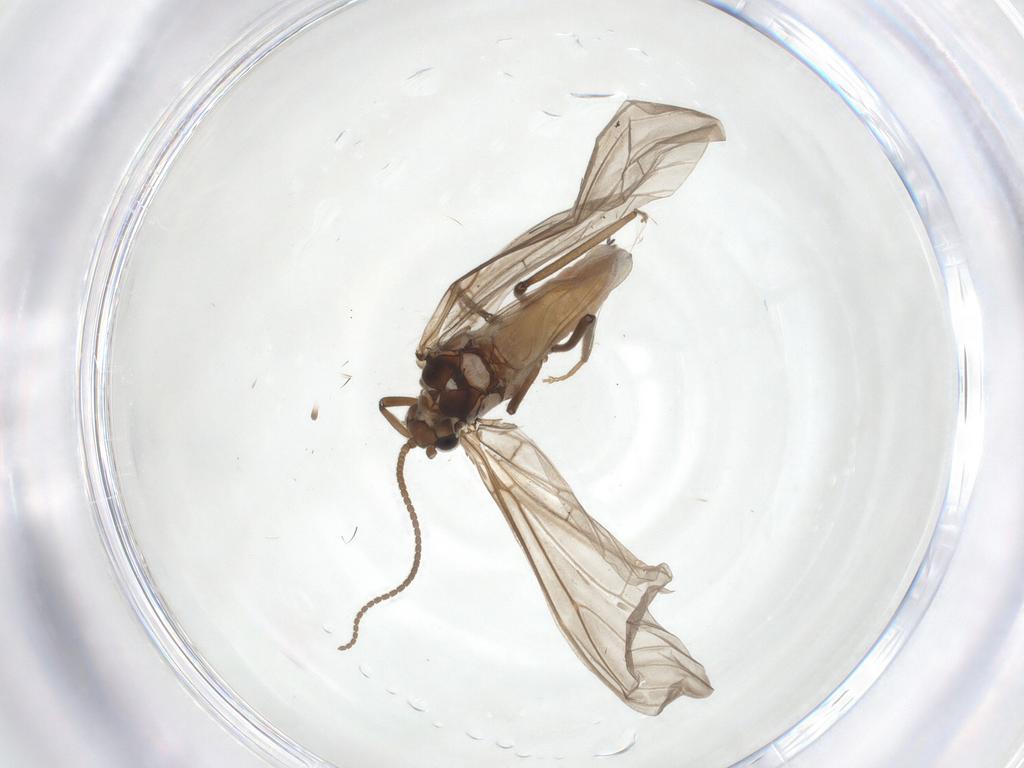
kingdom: Animalia
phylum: Arthropoda
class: Insecta
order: Neuroptera
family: Coniopterygidae
